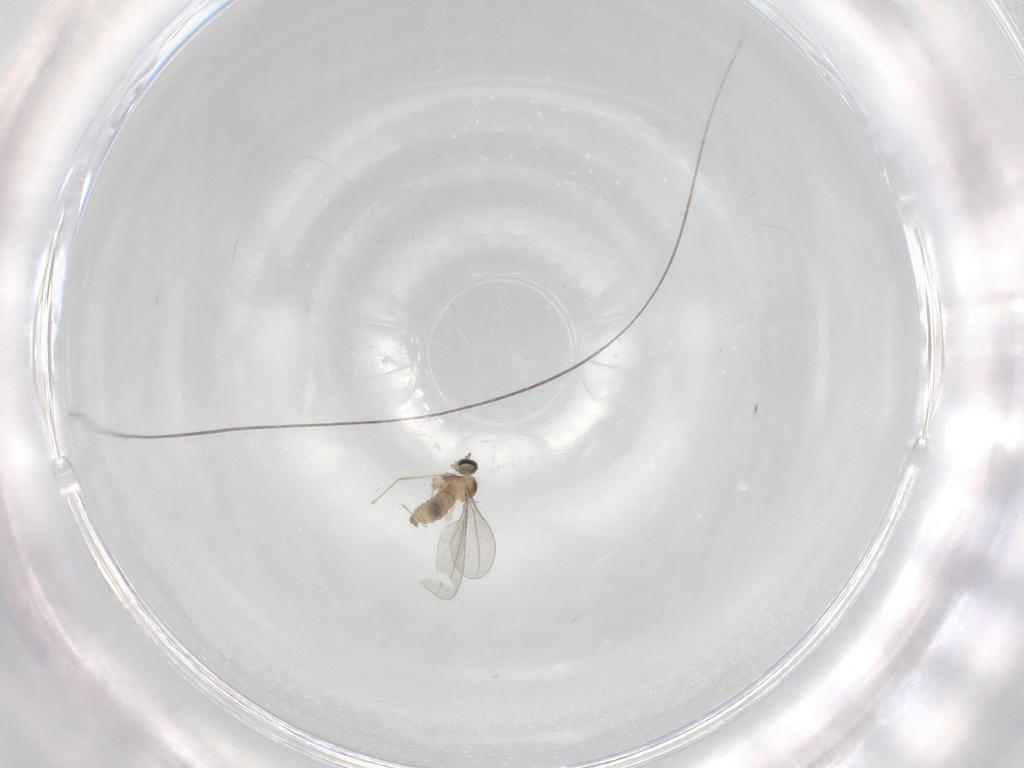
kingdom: Animalia
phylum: Arthropoda
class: Insecta
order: Diptera
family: Cecidomyiidae
